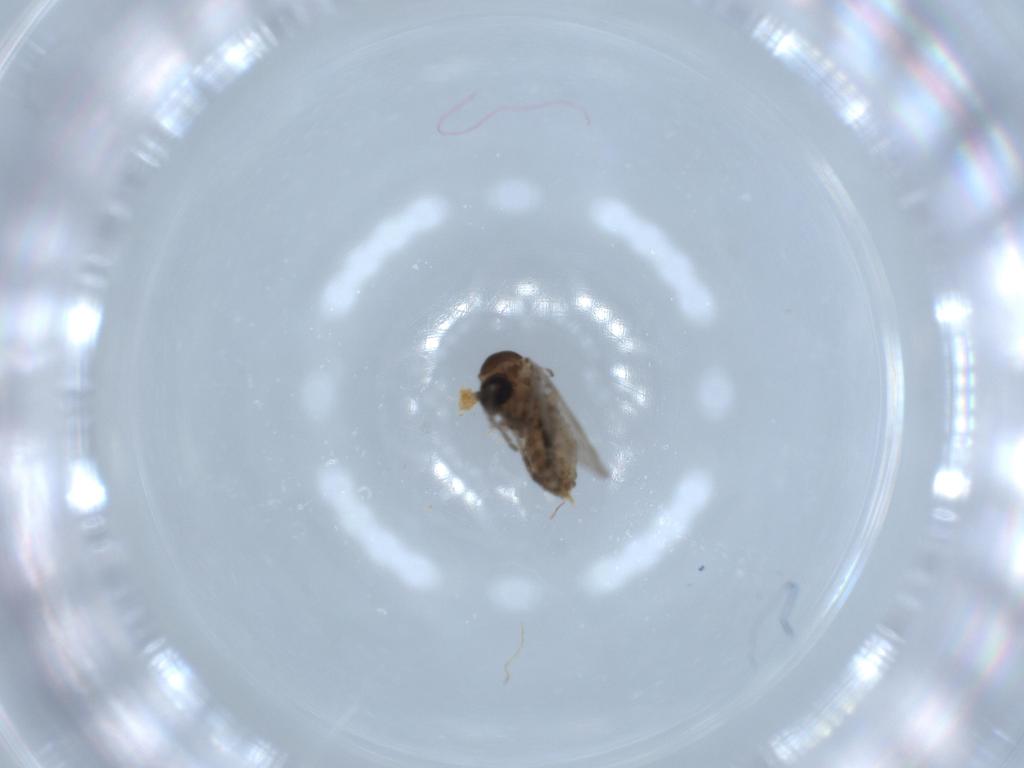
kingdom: Animalia
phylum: Arthropoda
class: Insecta
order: Diptera
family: Psychodidae
